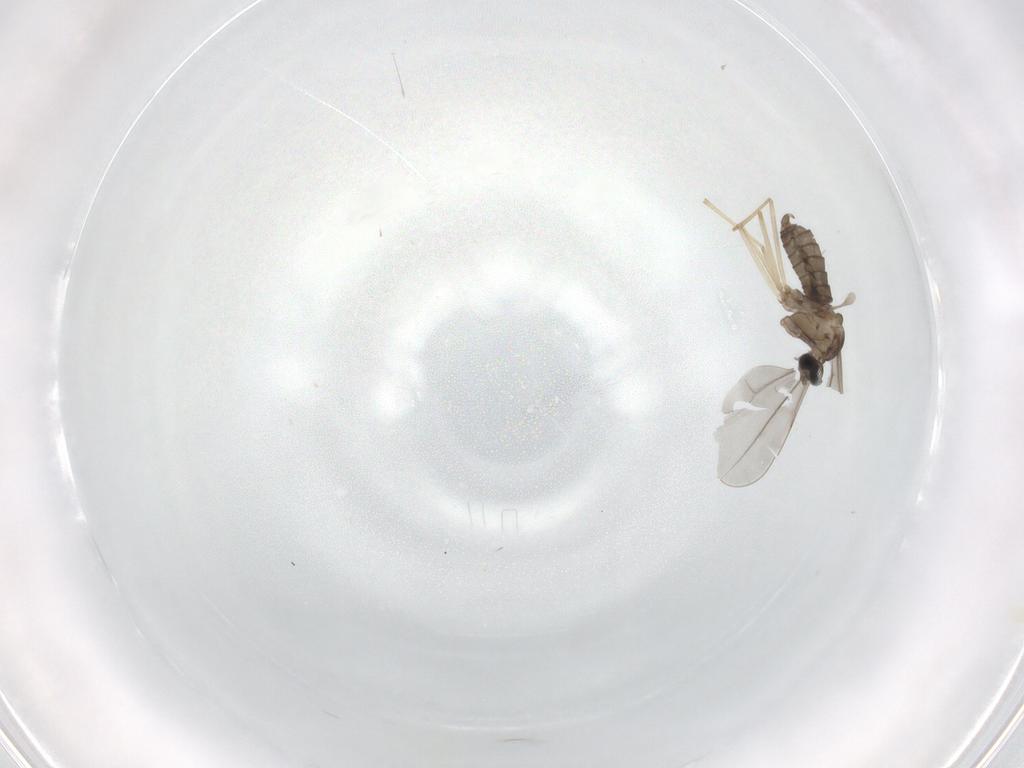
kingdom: Animalia
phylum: Arthropoda
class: Insecta
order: Diptera
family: Cecidomyiidae
